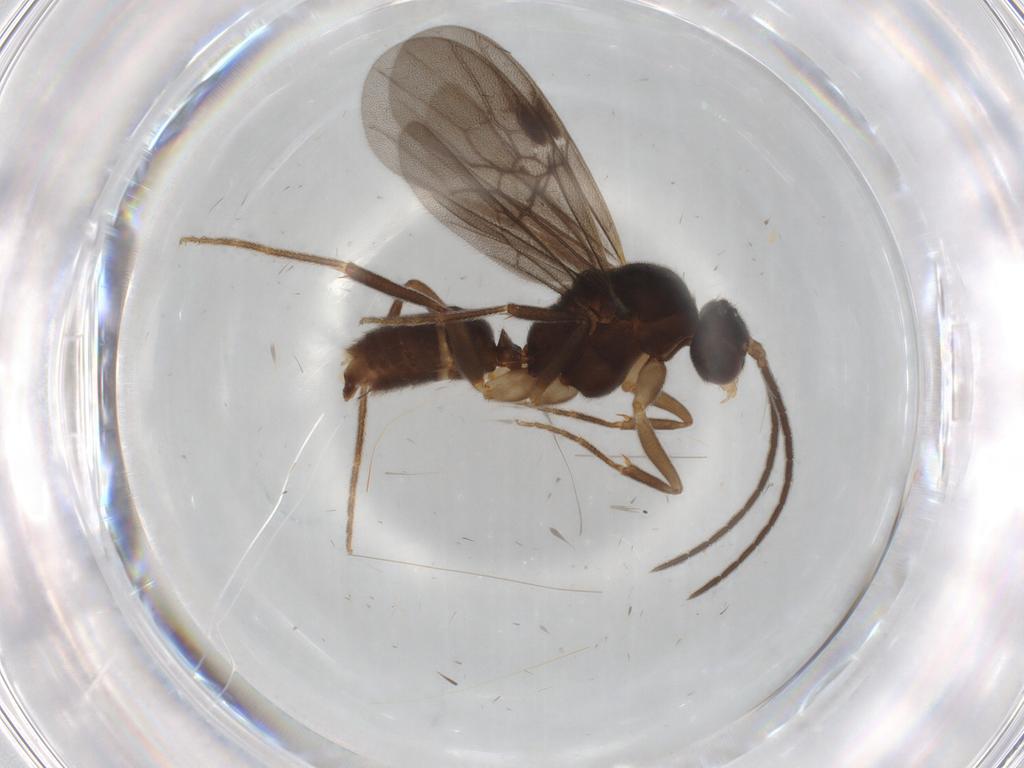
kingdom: Animalia
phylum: Arthropoda
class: Insecta
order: Hymenoptera
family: Formicidae
